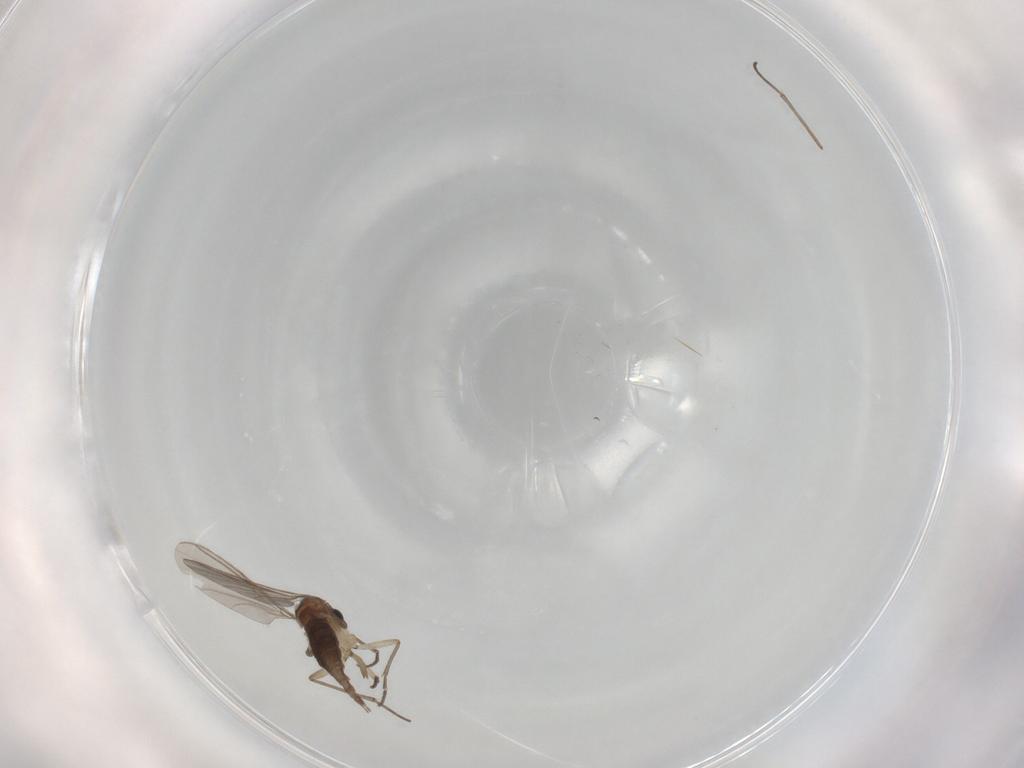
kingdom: Animalia
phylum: Arthropoda
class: Insecta
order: Diptera
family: Sciaridae
